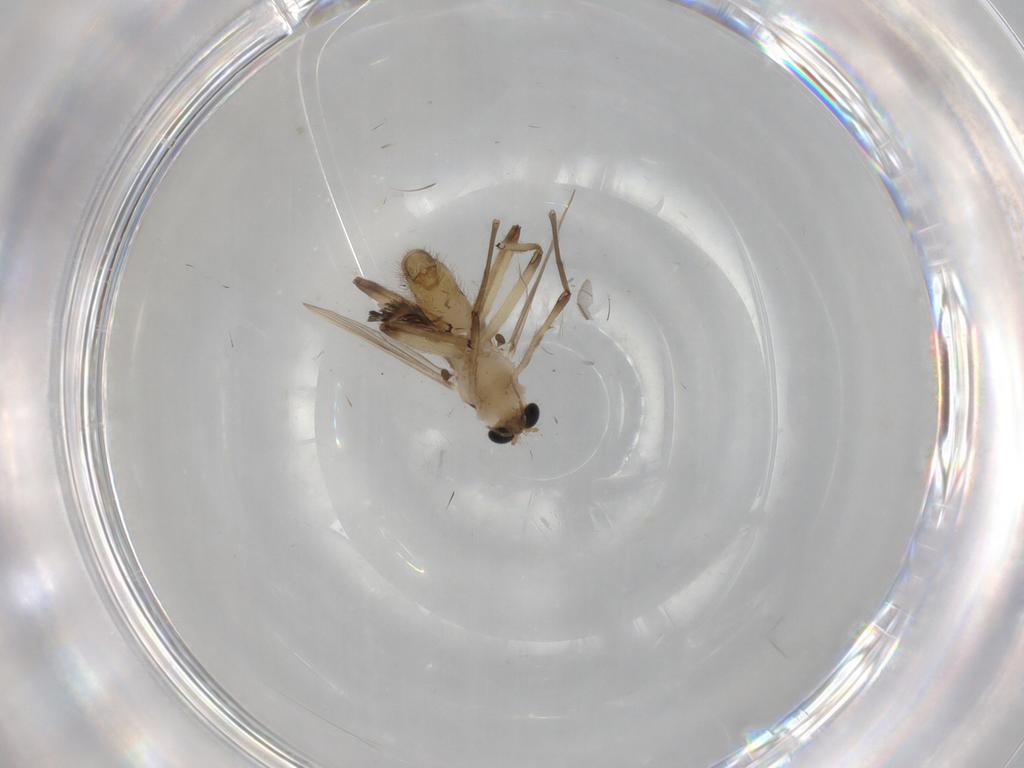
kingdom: Animalia
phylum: Arthropoda
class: Insecta
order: Diptera
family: Chironomidae
